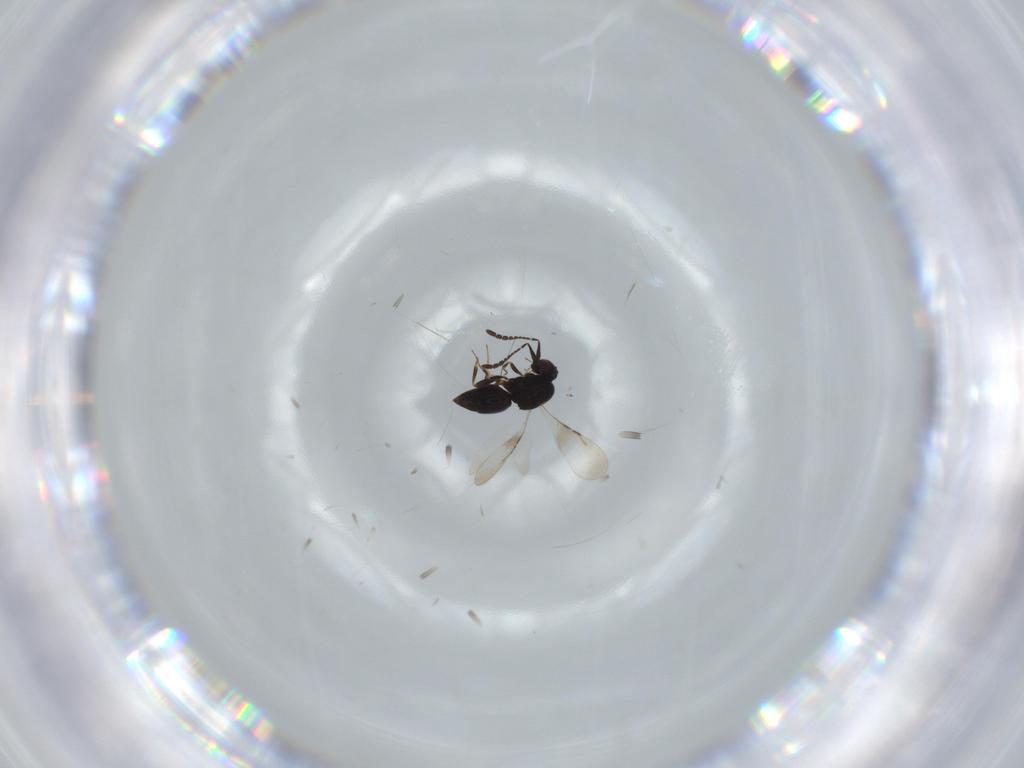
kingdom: Animalia
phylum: Arthropoda
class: Insecta
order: Hymenoptera
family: Ceraphronidae
